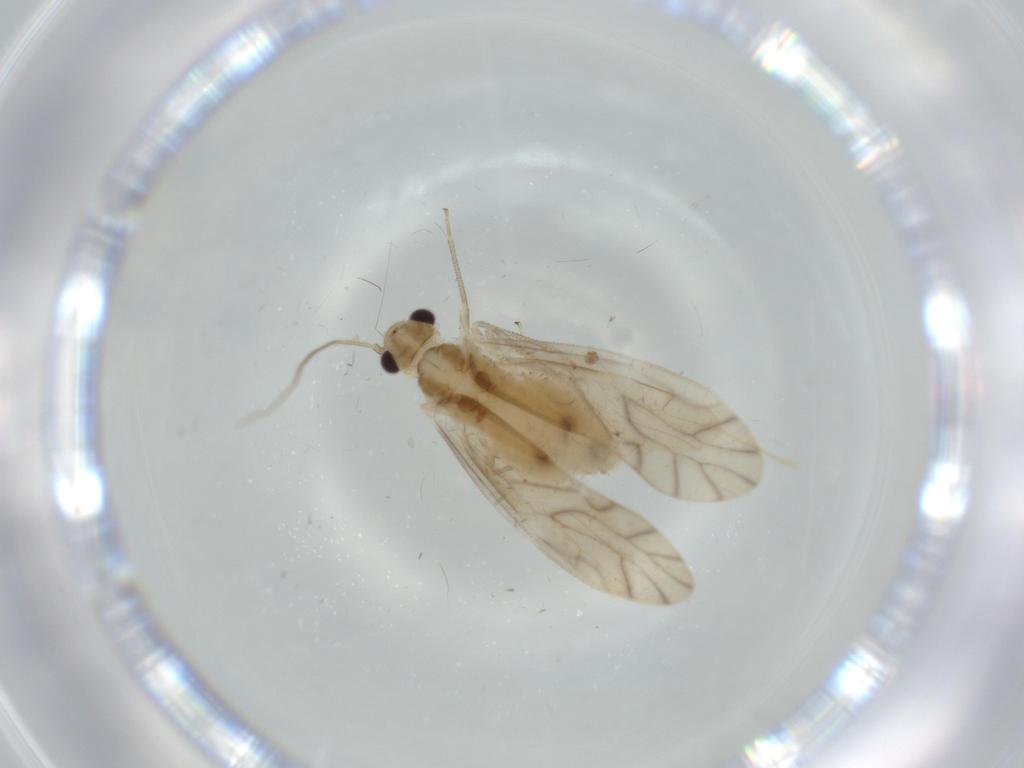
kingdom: Animalia
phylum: Arthropoda
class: Insecta
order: Psocodea
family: Caeciliusidae
